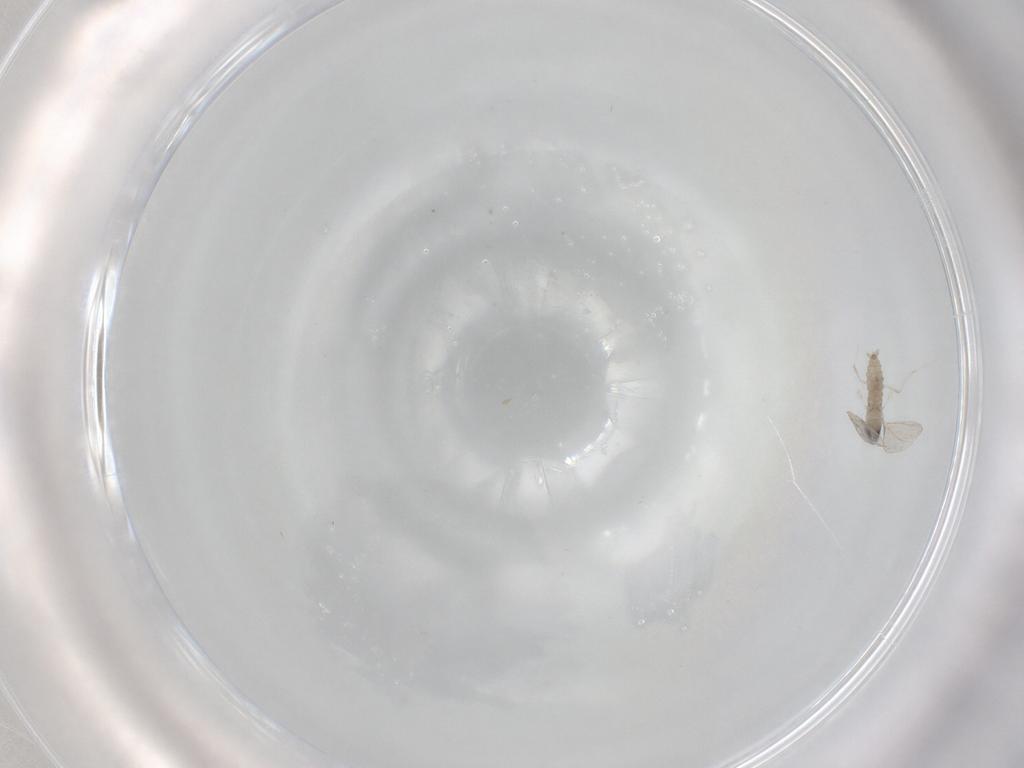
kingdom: Animalia
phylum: Arthropoda
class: Insecta
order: Diptera
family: Cecidomyiidae
